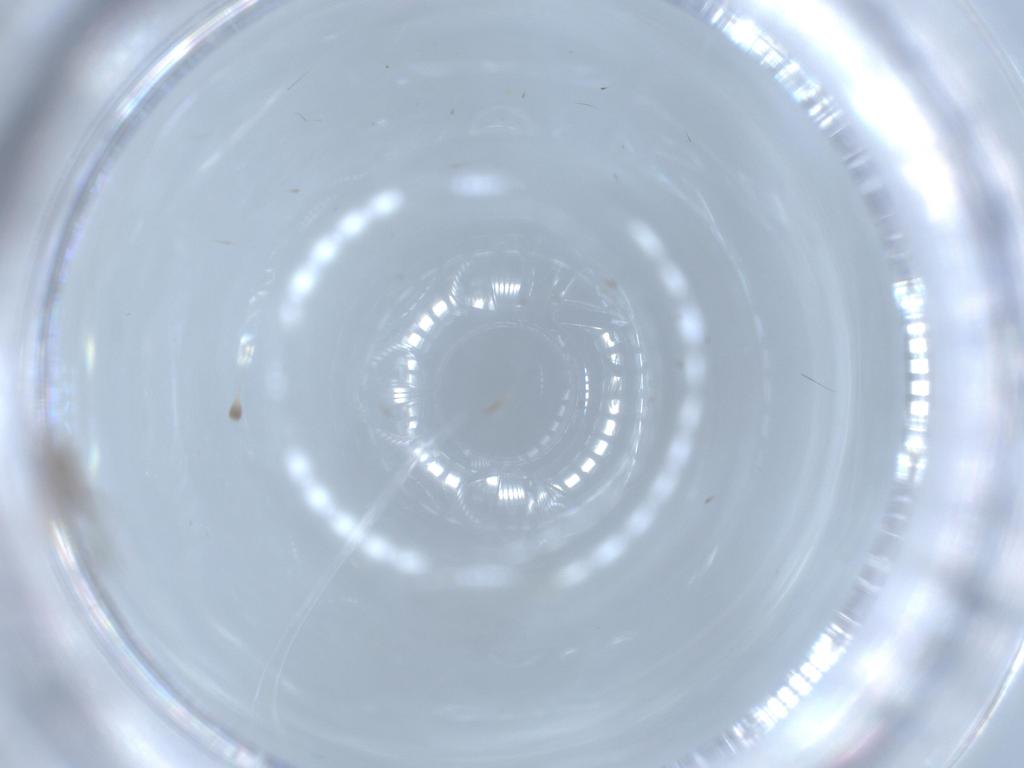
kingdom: Animalia
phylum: Arthropoda
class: Insecta
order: Diptera
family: Chironomidae
